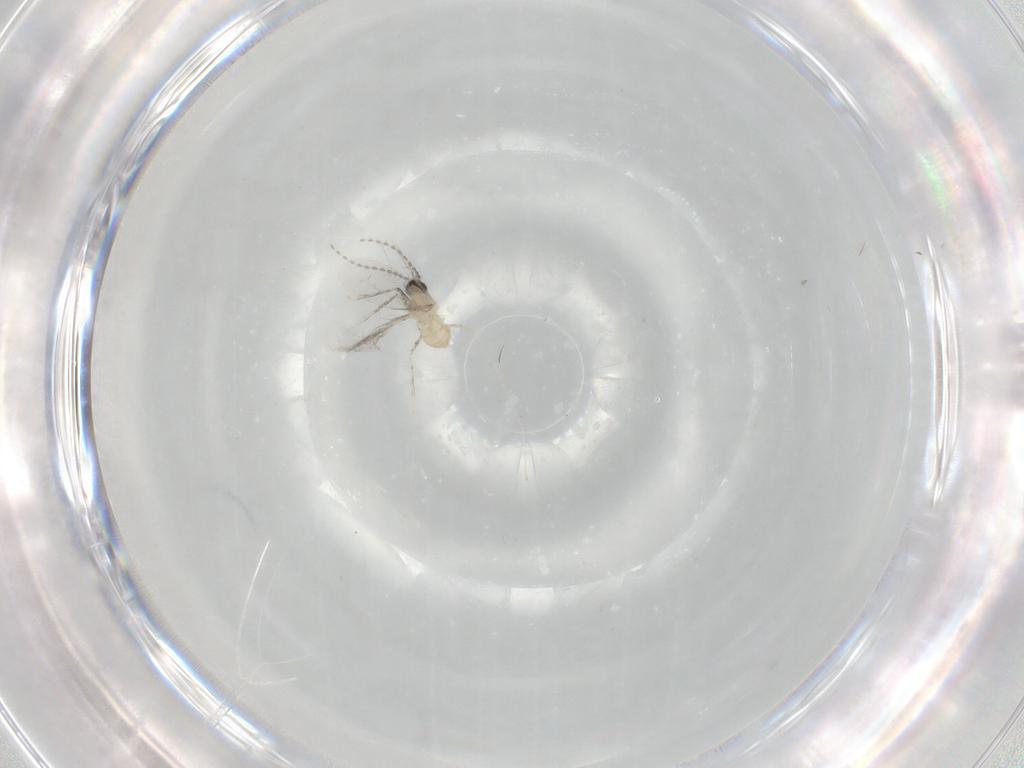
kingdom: Animalia
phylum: Arthropoda
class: Insecta
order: Diptera
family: Cecidomyiidae
